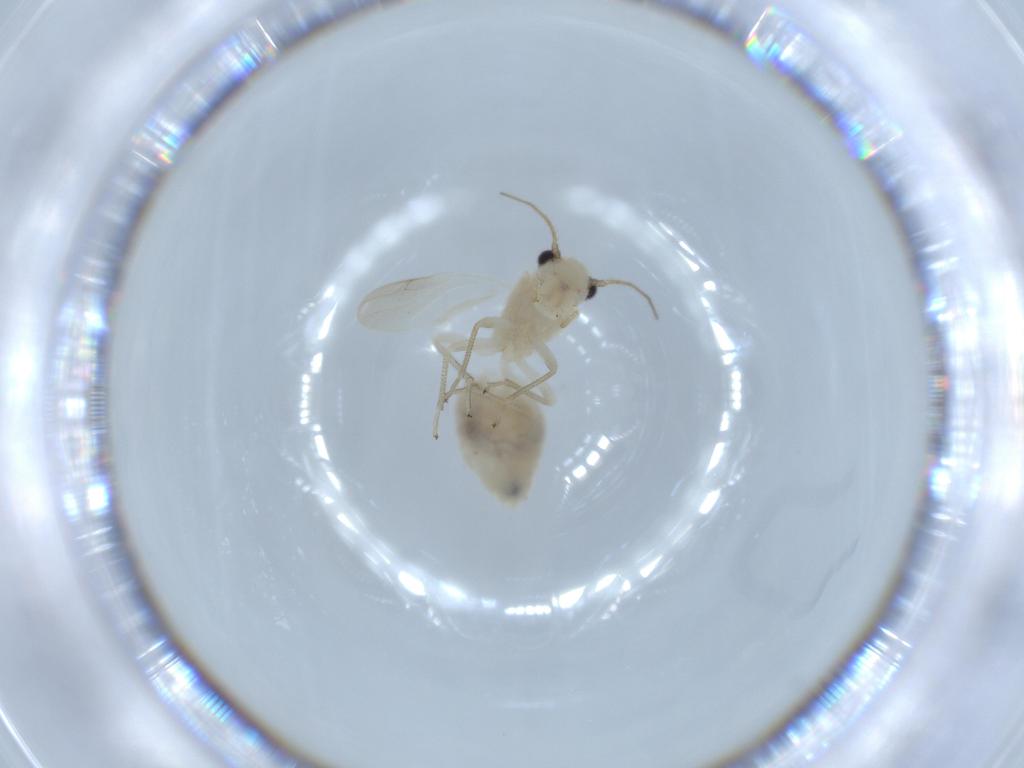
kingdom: Animalia
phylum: Arthropoda
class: Insecta
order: Psocodea
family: Caeciliusidae
